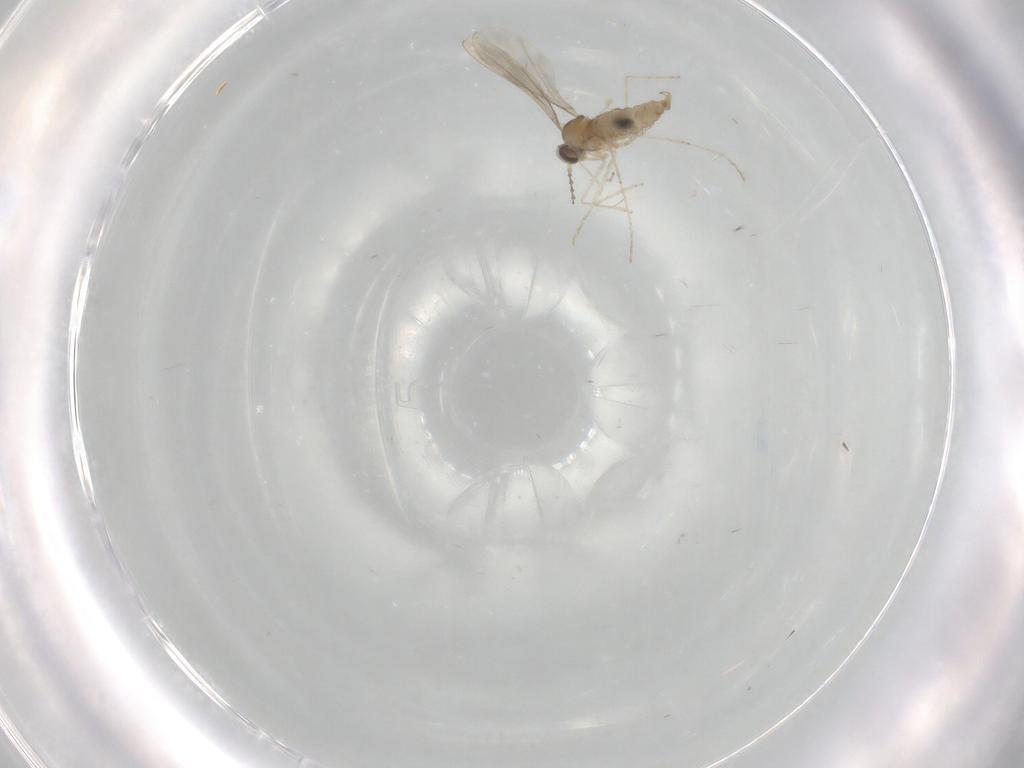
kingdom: Animalia
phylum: Arthropoda
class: Insecta
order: Diptera
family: Cecidomyiidae
